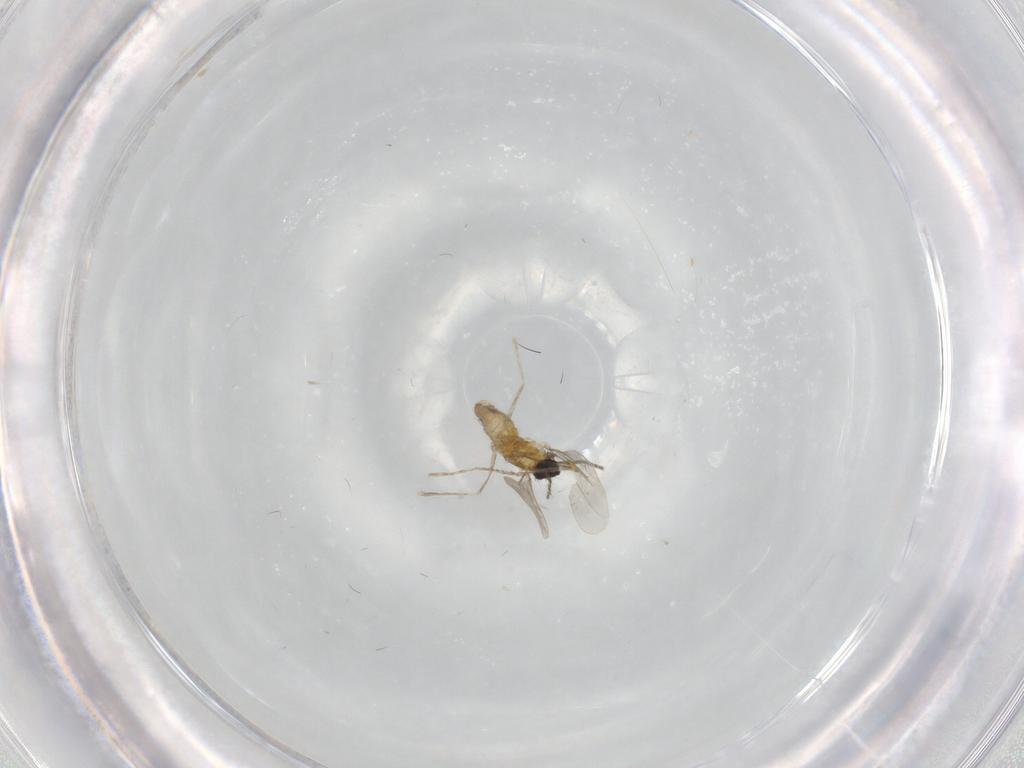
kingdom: Animalia
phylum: Arthropoda
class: Insecta
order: Diptera
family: Cecidomyiidae
